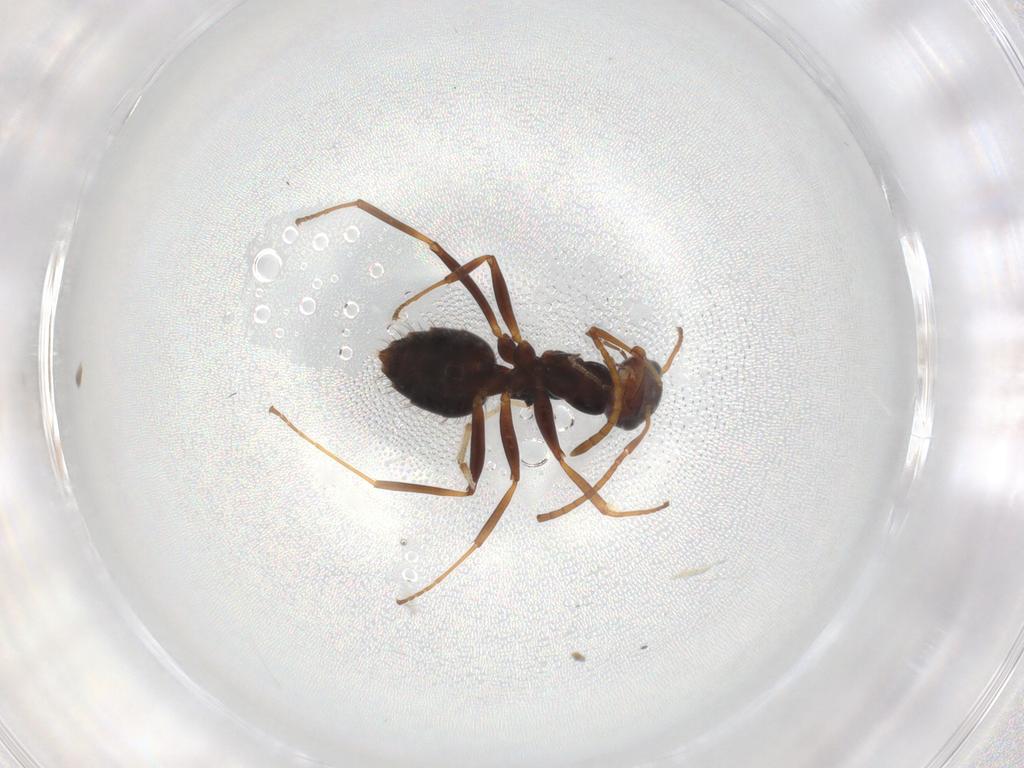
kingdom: Animalia
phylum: Arthropoda
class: Insecta
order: Hymenoptera
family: Formicidae
